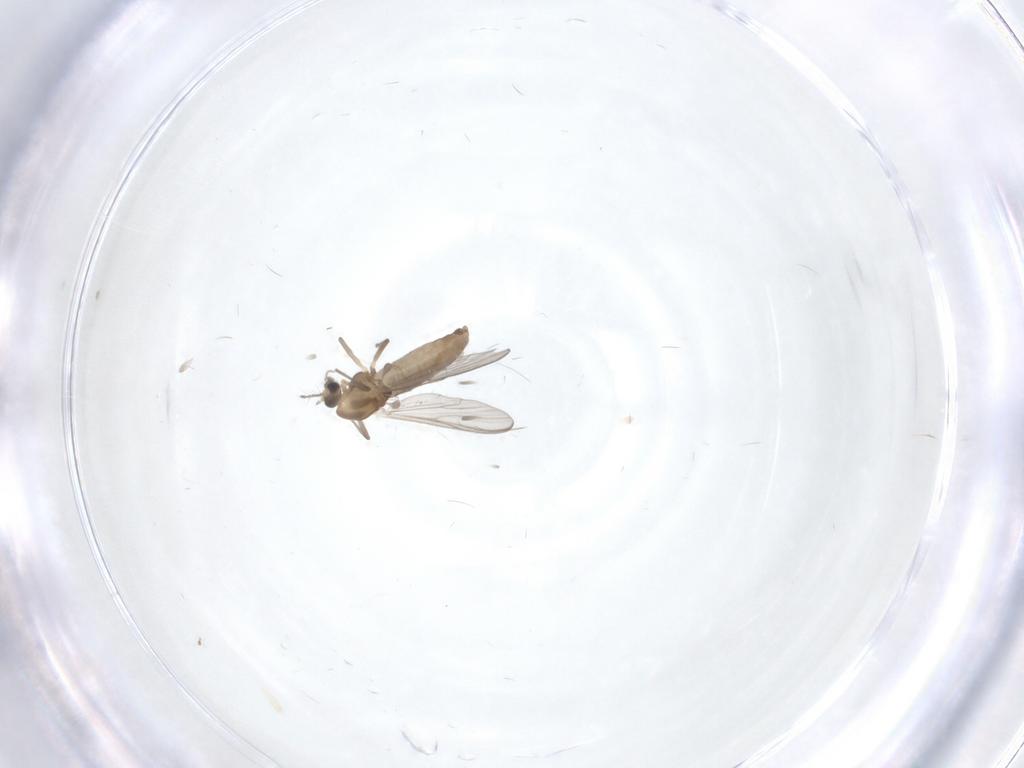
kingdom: Animalia
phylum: Arthropoda
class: Insecta
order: Diptera
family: Chironomidae
